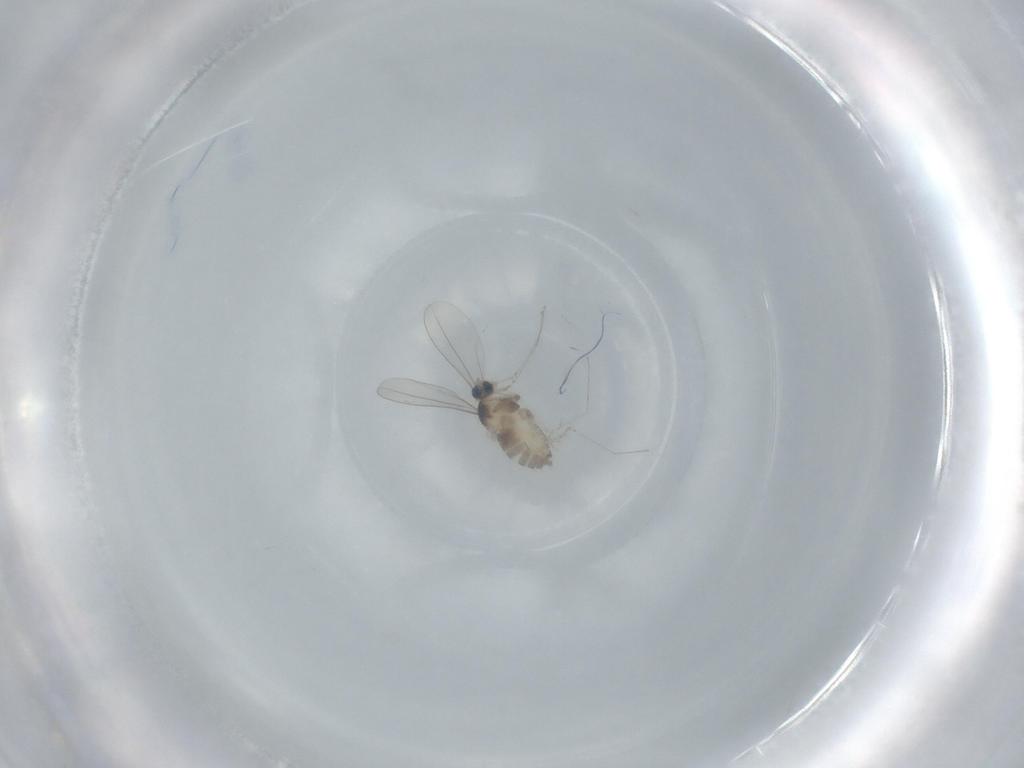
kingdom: Animalia
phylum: Arthropoda
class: Insecta
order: Diptera
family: Cecidomyiidae
